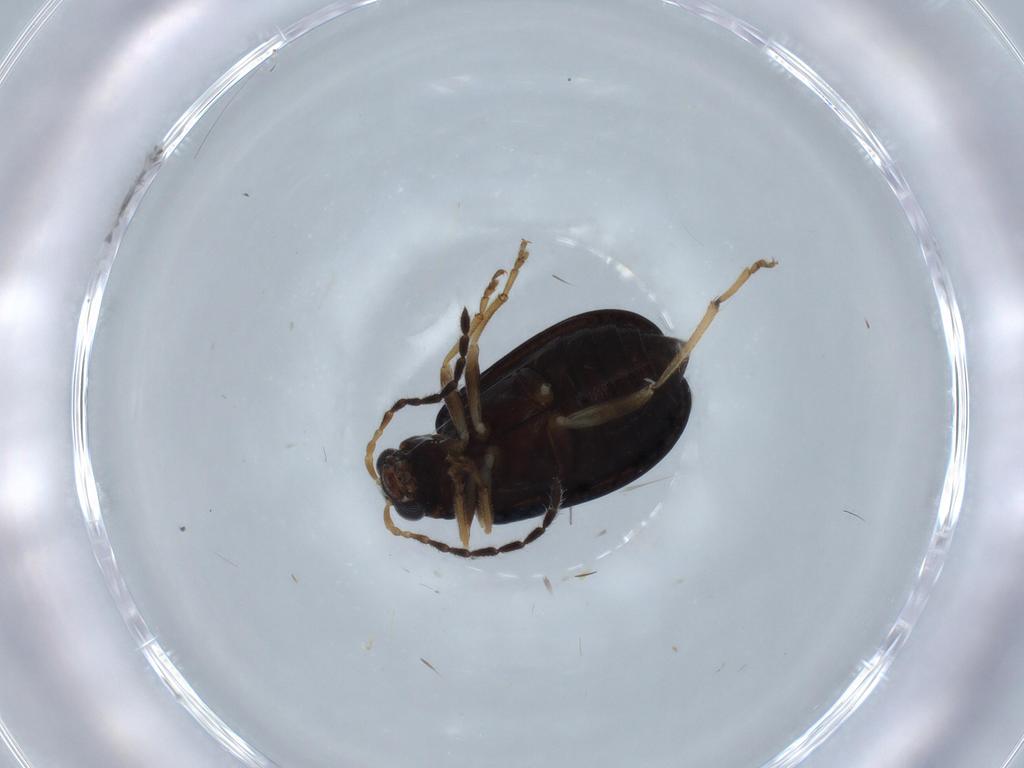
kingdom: Animalia
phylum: Arthropoda
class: Insecta
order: Coleoptera
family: Chrysomelidae
